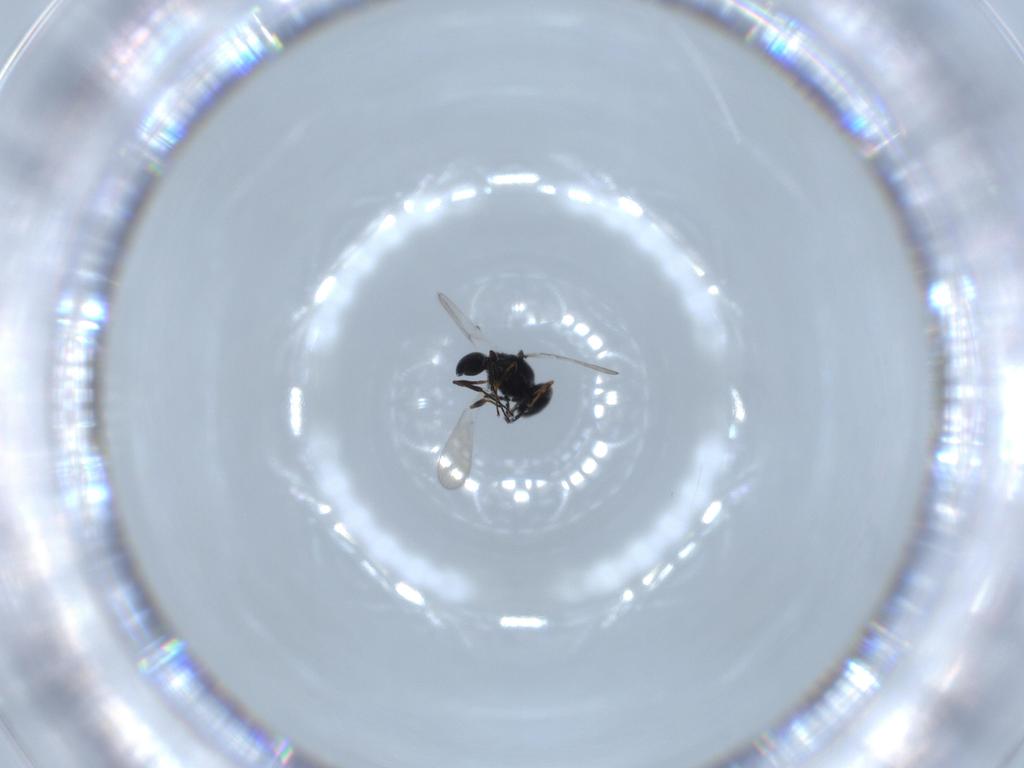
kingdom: Animalia
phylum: Arthropoda
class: Insecta
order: Hymenoptera
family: Platygastridae
